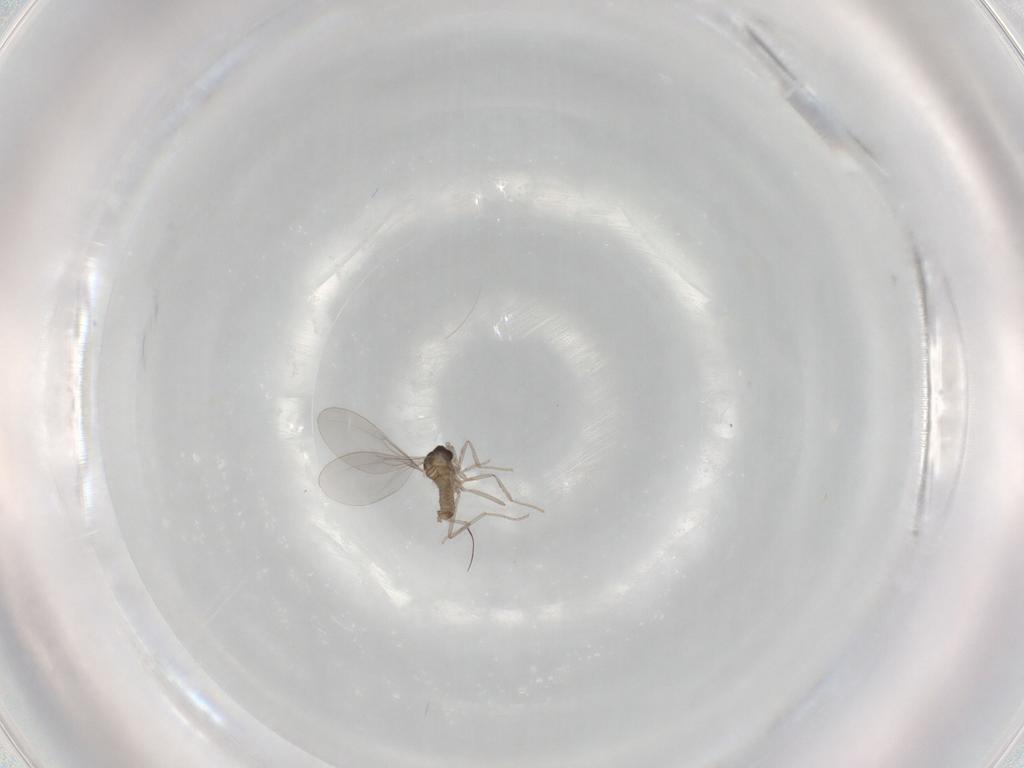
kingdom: Animalia
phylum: Arthropoda
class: Insecta
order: Diptera
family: Cecidomyiidae
